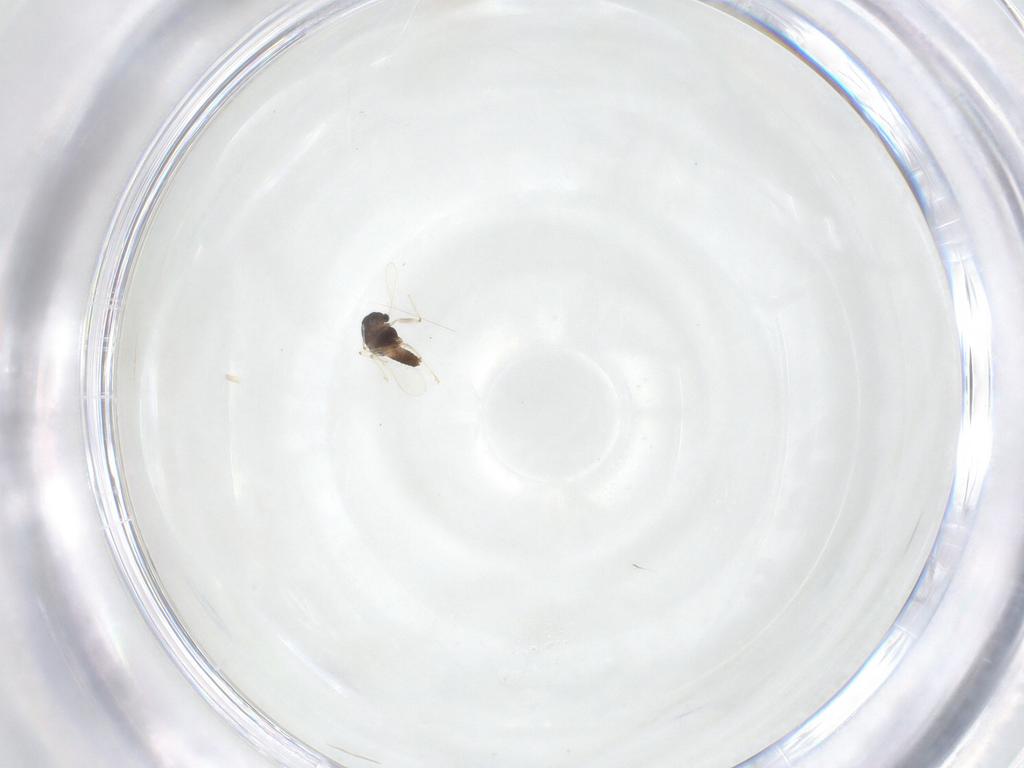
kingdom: Animalia
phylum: Arthropoda
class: Insecta
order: Diptera
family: Chironomidae
